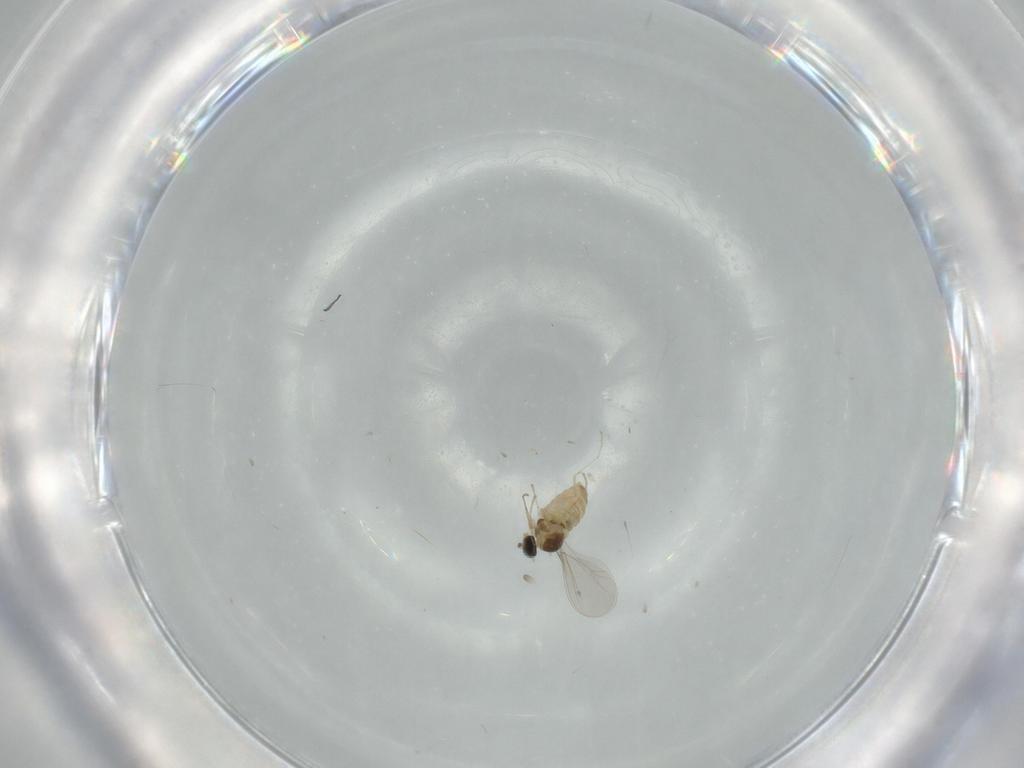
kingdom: Animalia
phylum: Arthropoda
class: Insecta
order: Diptera
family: Cecidomyiidae
